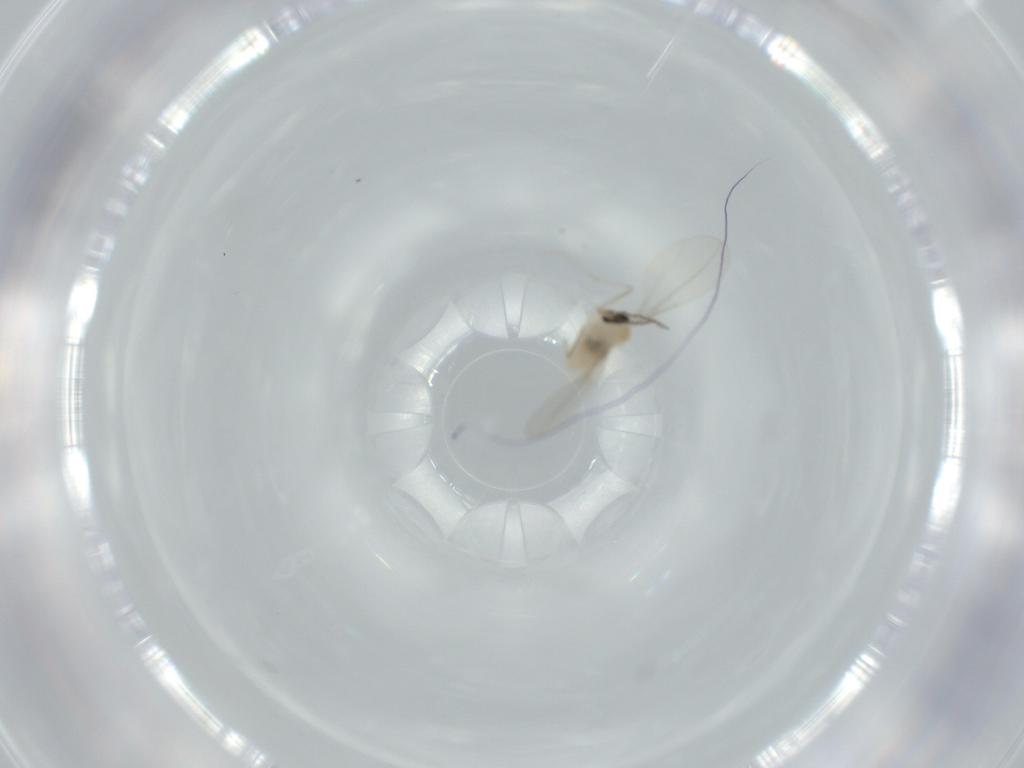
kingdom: Animalia
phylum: Arthropoda
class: Insecta
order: Diptera
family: Cecidomyiidae
